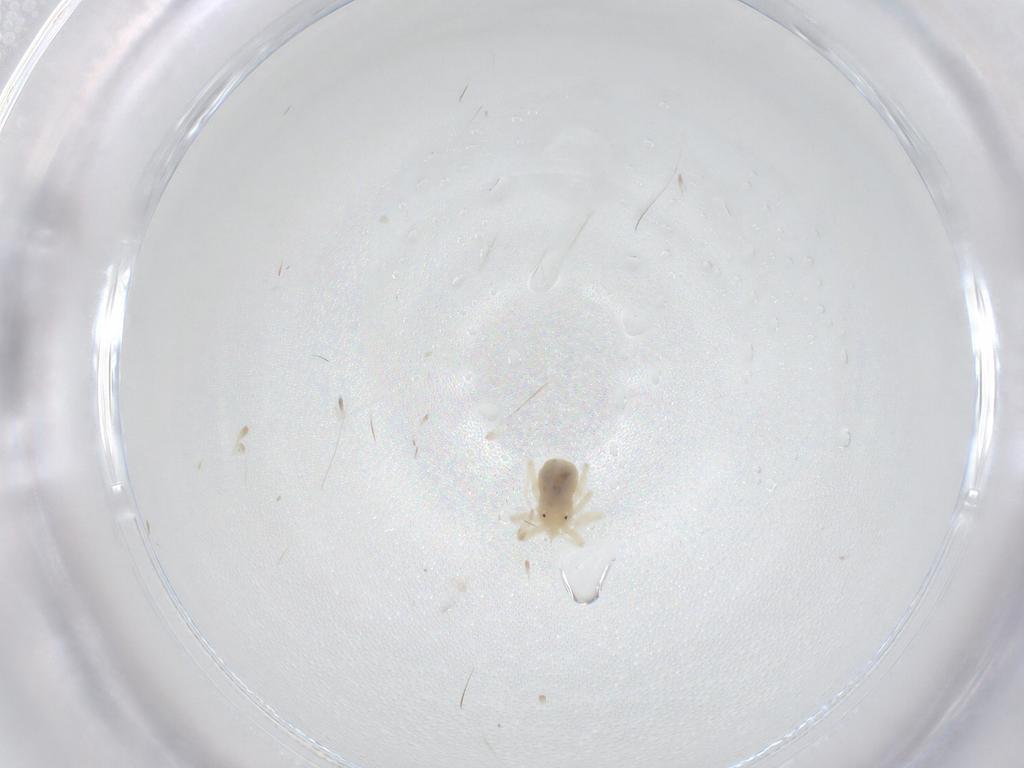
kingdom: Animalia
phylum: Arthropoda
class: Arachnida
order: Trombidiformes
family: Anystidae
